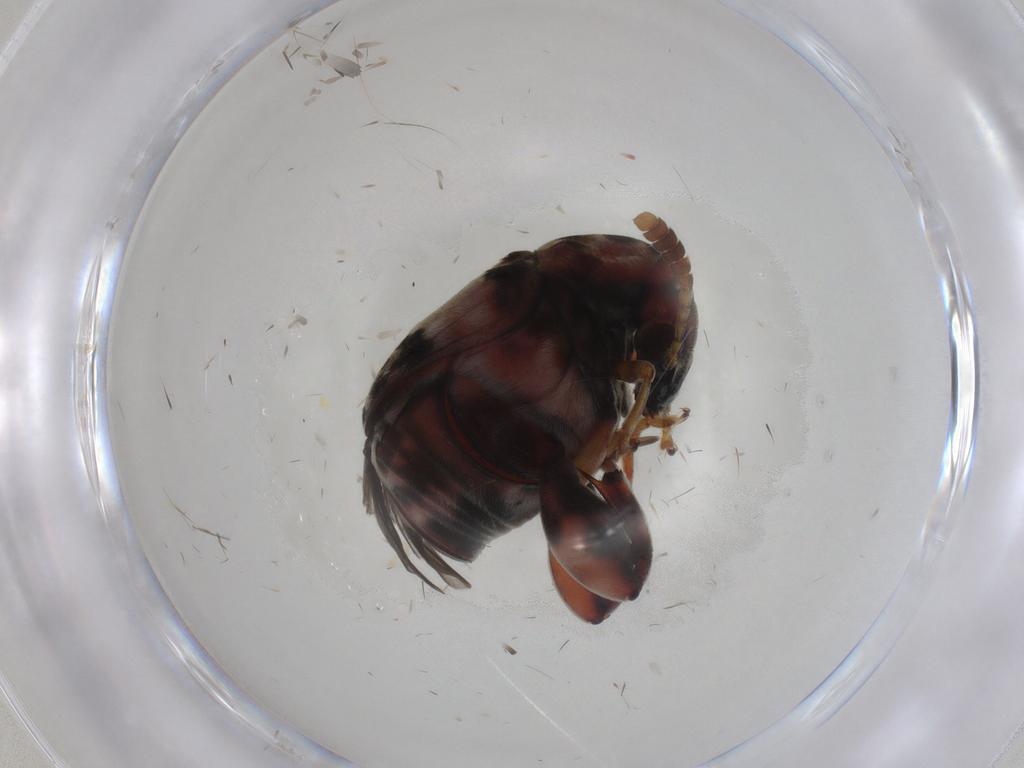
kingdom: Animalia
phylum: Arthropoda
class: Insecta
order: Coleoptera
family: Chrysomelidae
